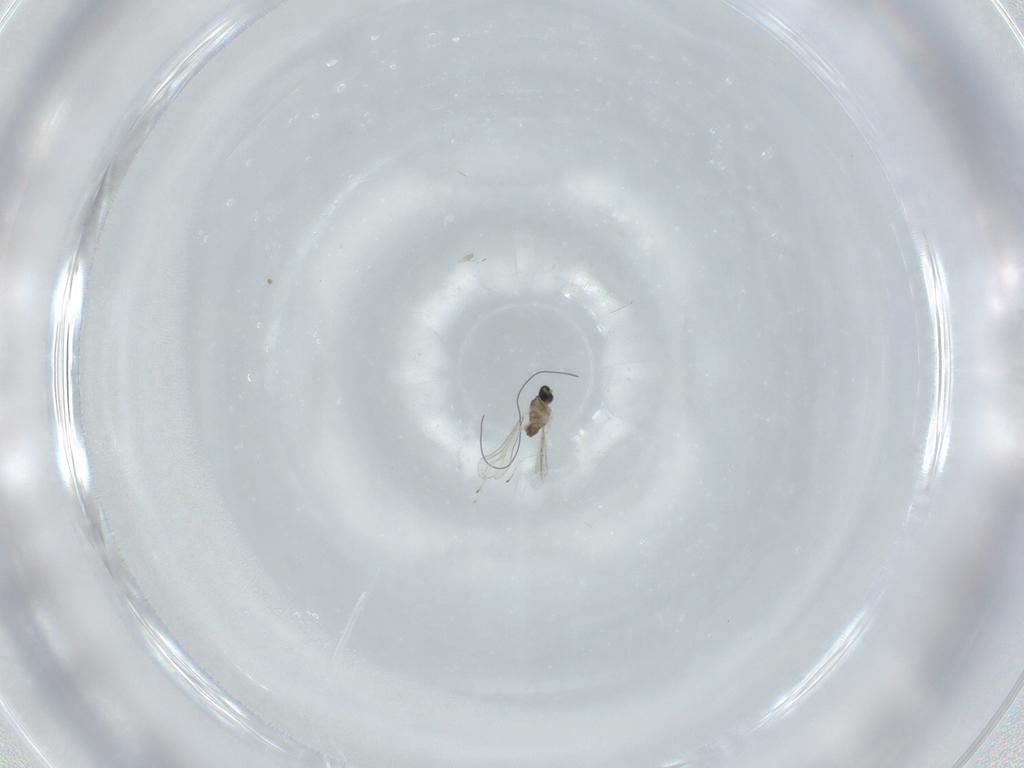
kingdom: Animalia
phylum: Arthropoda
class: Insecta
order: Diptera
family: Cecidomyiidae
